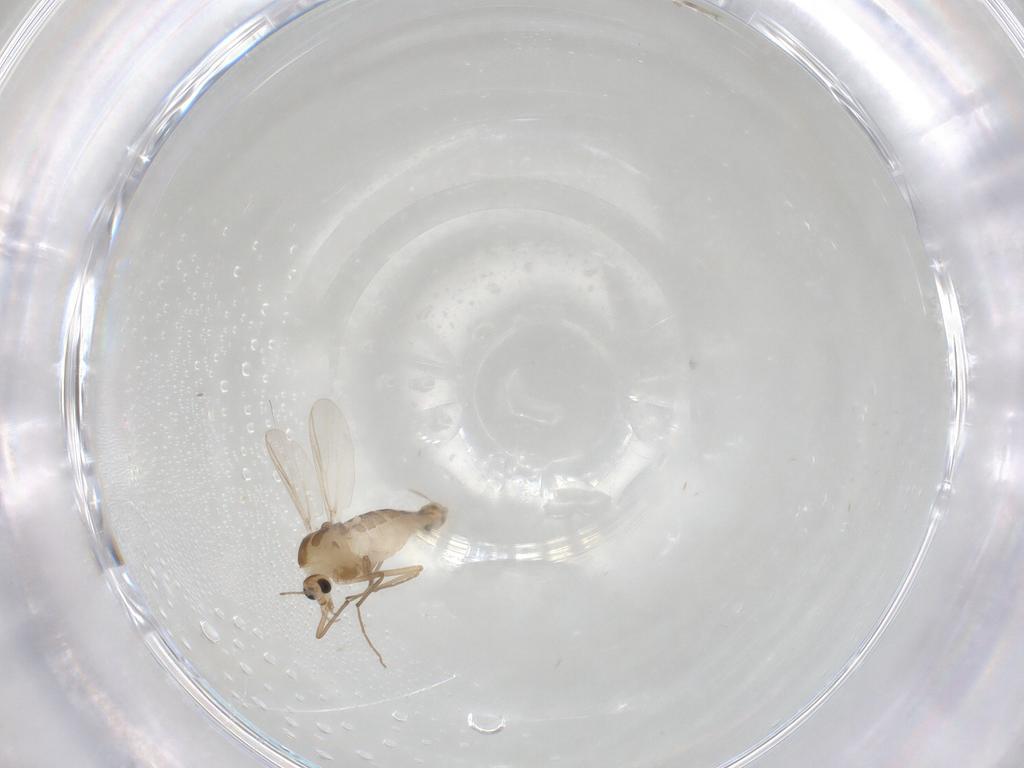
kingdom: Animalia
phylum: Arthropoda
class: Insecta
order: Diptera
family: Chironomidae
